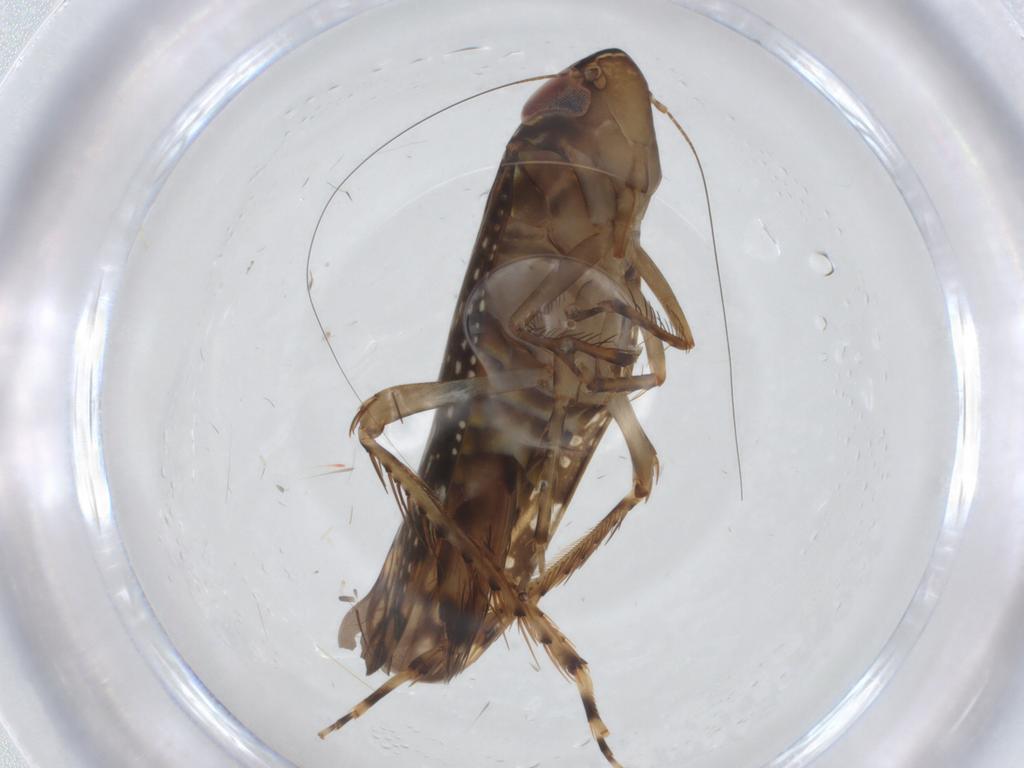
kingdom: Animalia
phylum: Arthropoda
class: Insecta
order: Hemiptera
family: Cicadellidae
